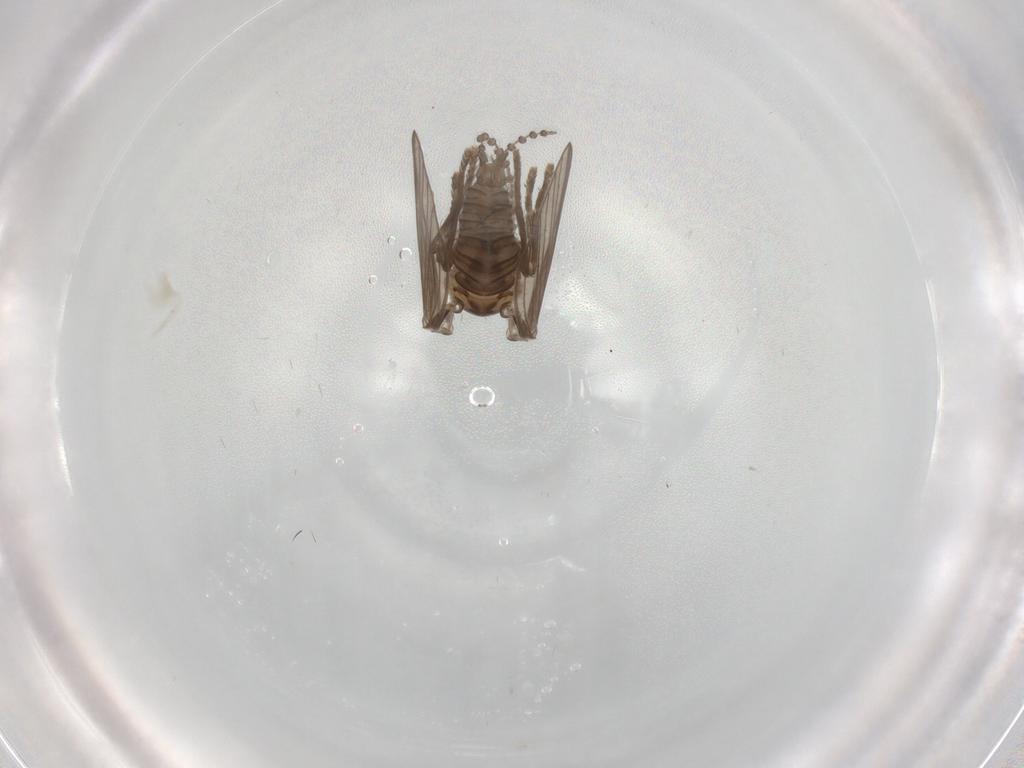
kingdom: Animalia
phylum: Arthropoda
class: Insecta
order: Diptera
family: Psychodidae
